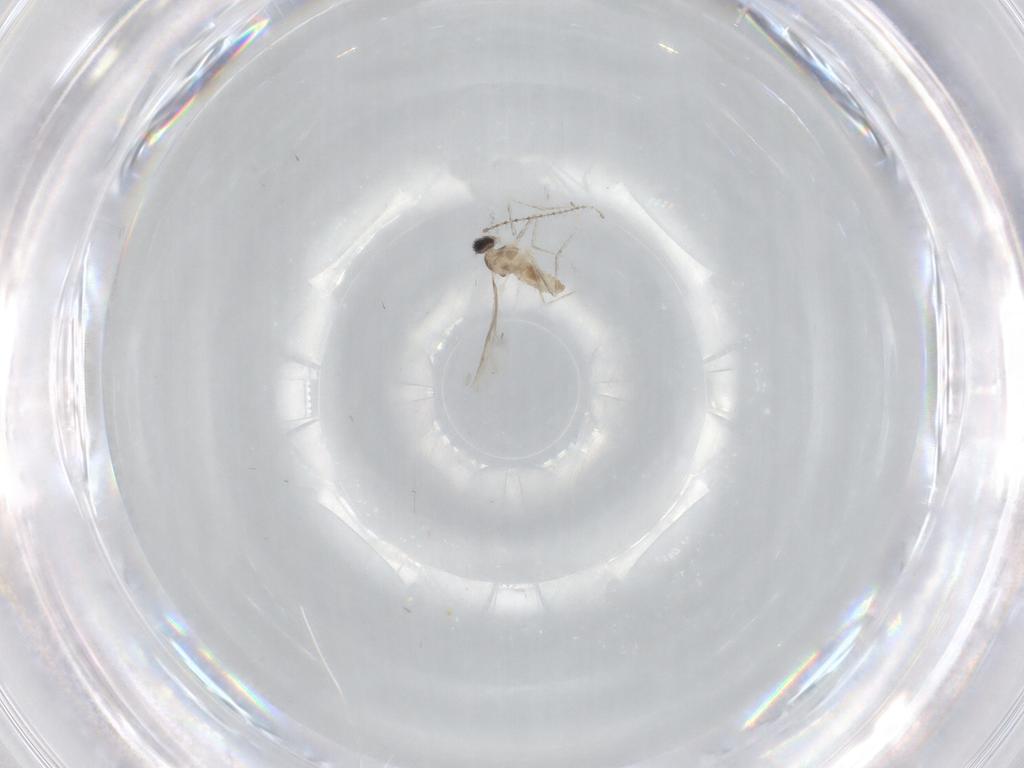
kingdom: Animalia
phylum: Arthropoda
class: Insecta
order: Diptera
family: Cecidomyiidae
